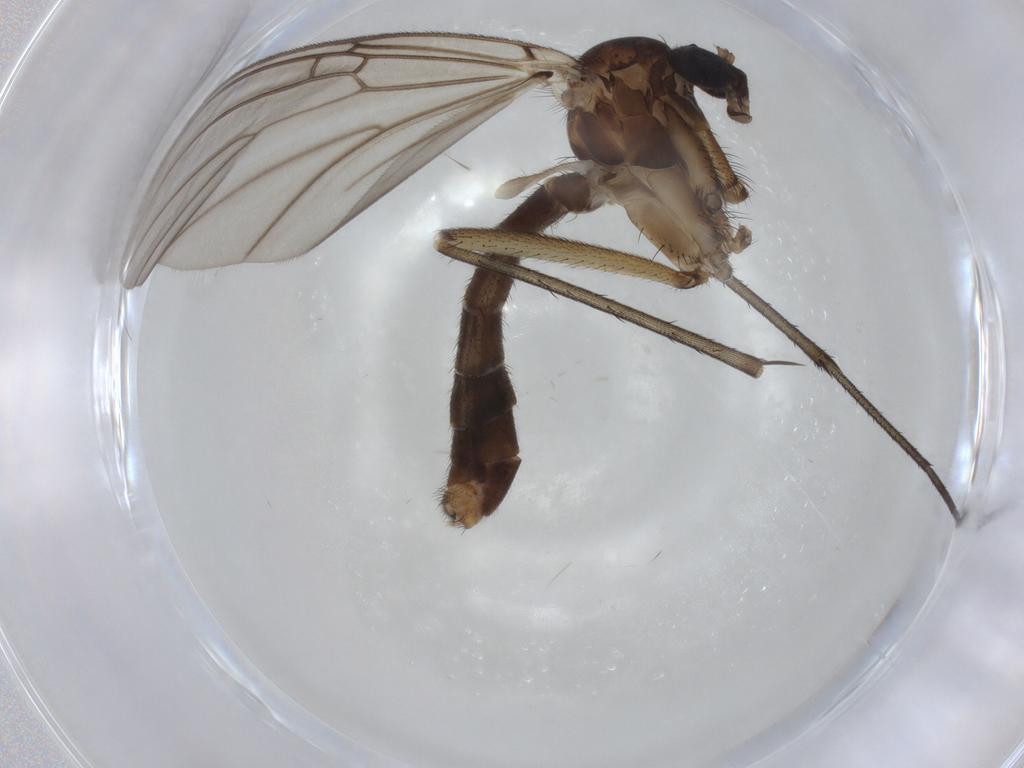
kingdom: Animalia
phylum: Arthropoda
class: Insecta
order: Diptera
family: Mycetophilidae
